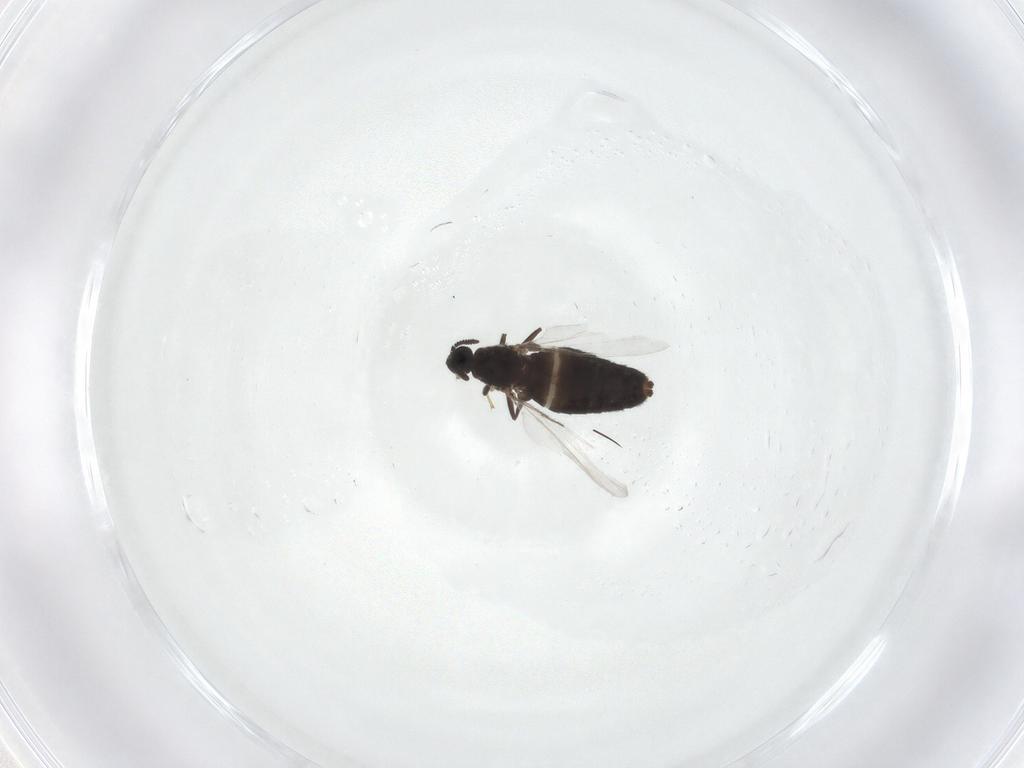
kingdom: Animalia
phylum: Arthropoda
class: Insecta
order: Diptera
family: Scatopsidae
